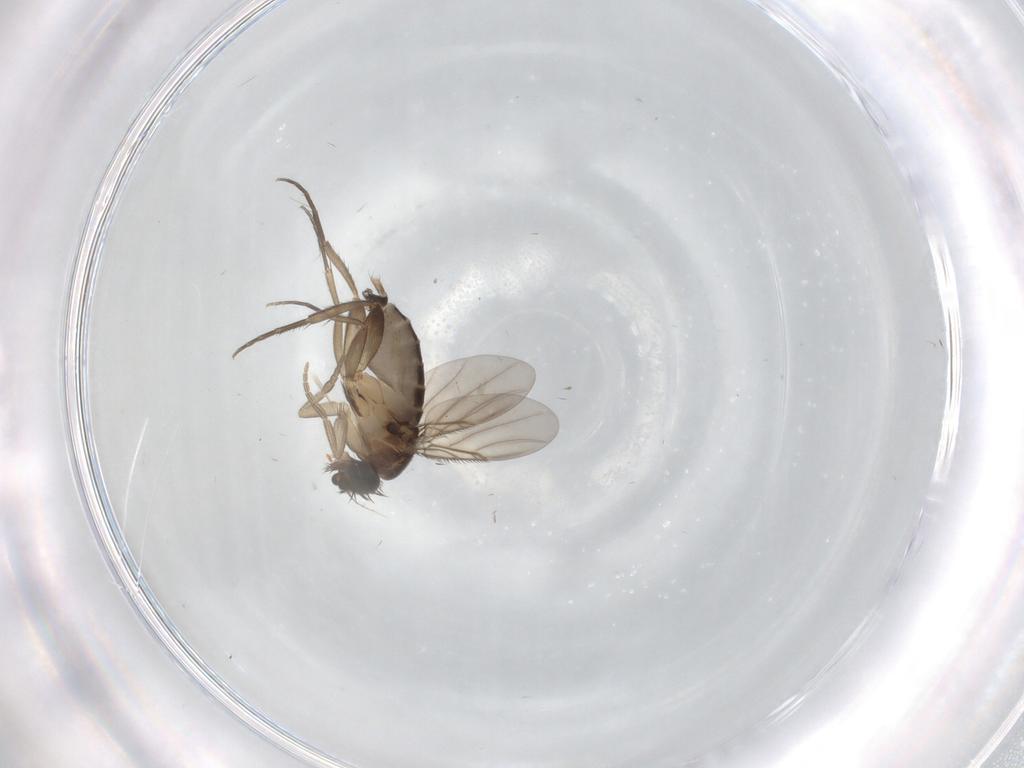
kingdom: Animalia
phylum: Arthropoda
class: Insecta
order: Diptera
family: Phoridae
